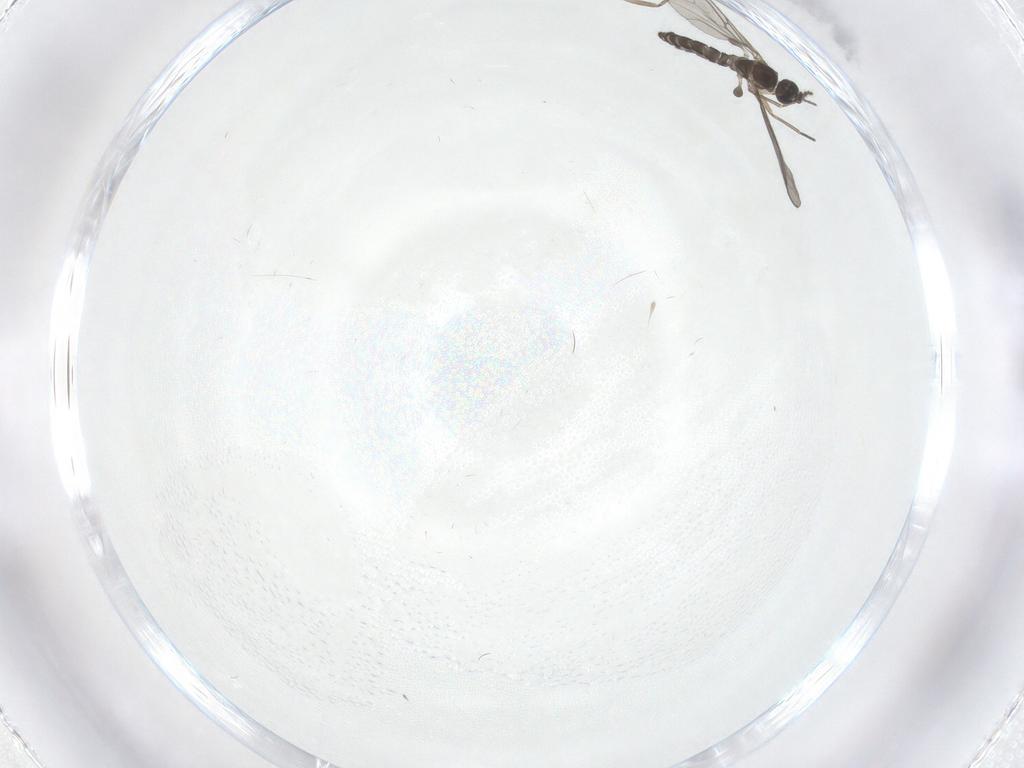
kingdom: Animalia
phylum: Arthropoda
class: Insecta
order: Diptera
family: Sciaridae
